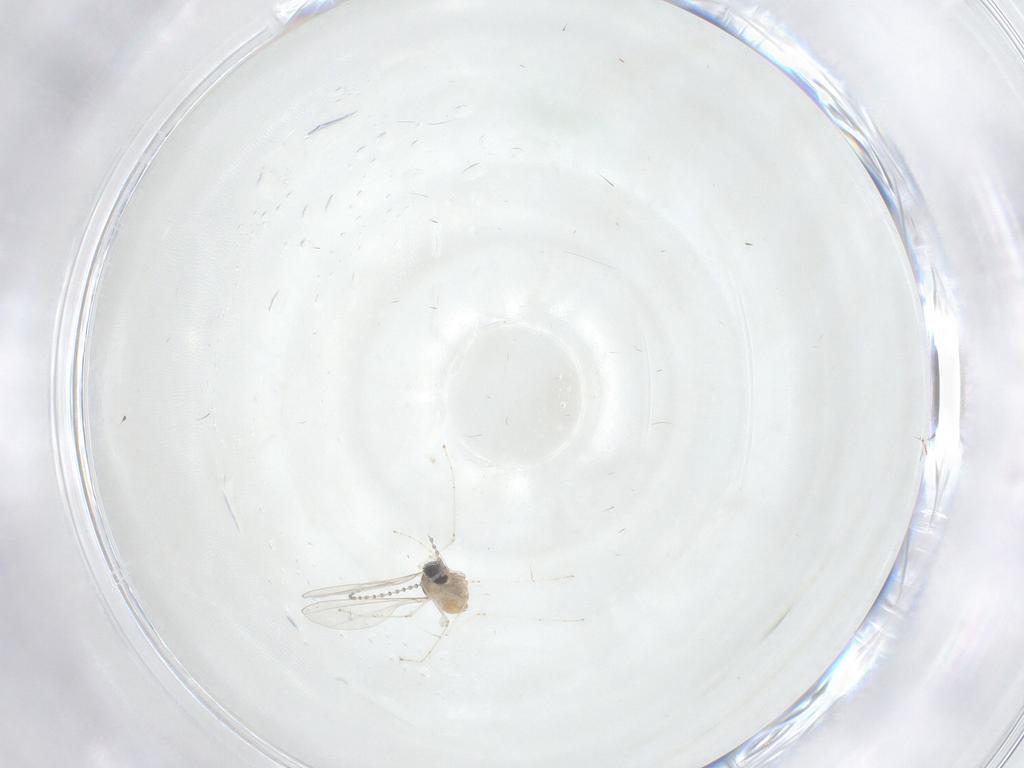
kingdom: Animalia
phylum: Arthropoda
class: Insecta
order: Diptera
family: Cecidomyiidae
